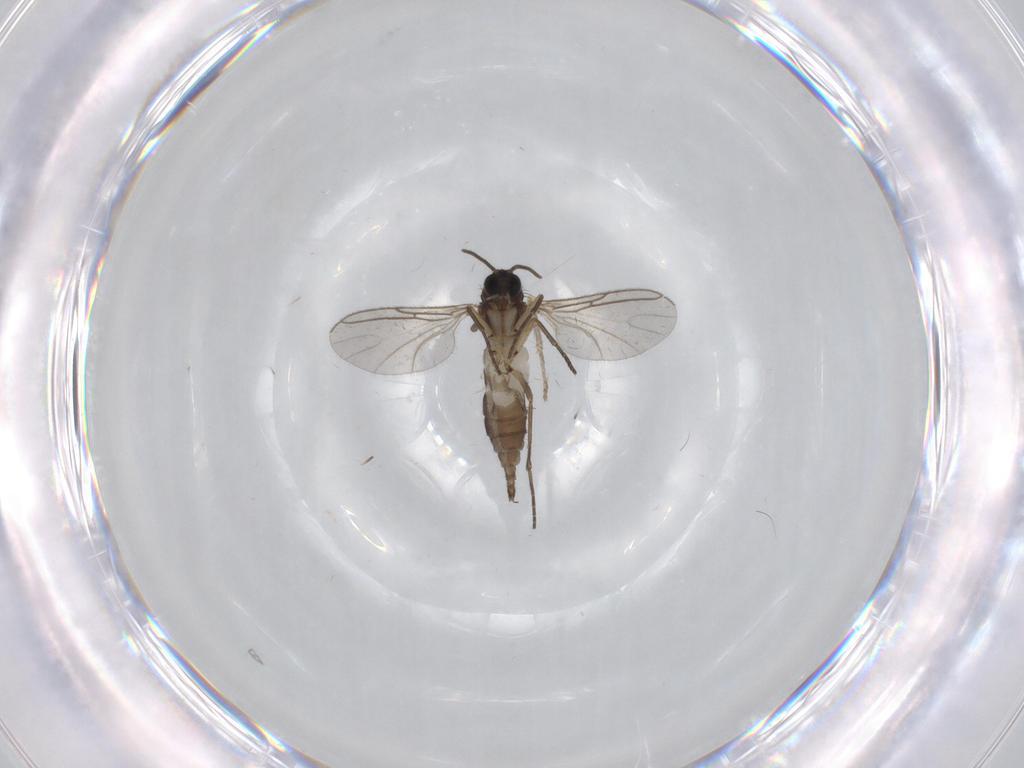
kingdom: Animalia
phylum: Arthropoda
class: Insecta
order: Diptera
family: Sciaridae
